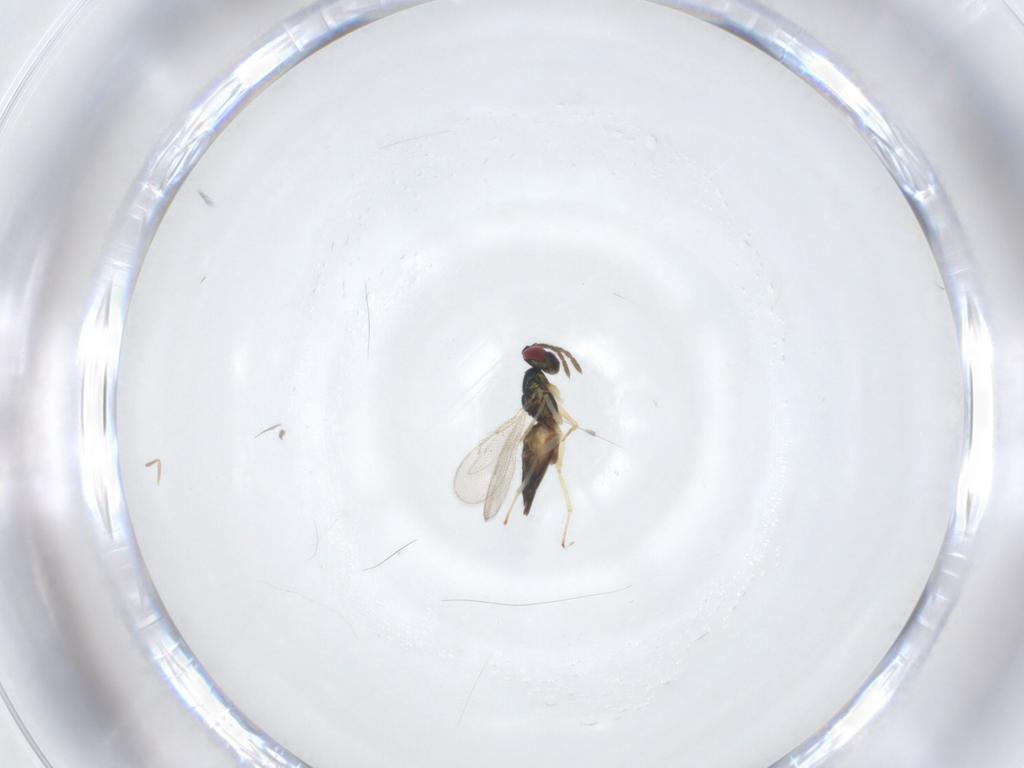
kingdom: Animalia
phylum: Arthropoda
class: Insecta
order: Hymenoptera
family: Eulophidae
